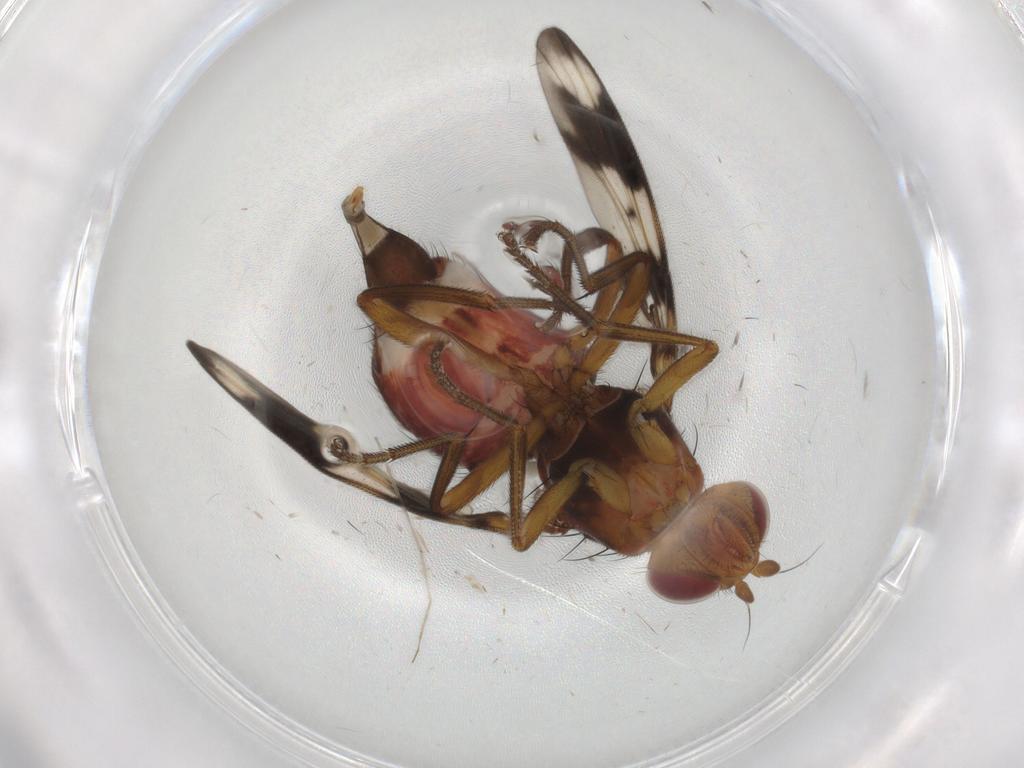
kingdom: Animalia
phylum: Arthropoda
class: Insecta
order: Diptera
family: Richardiidae
